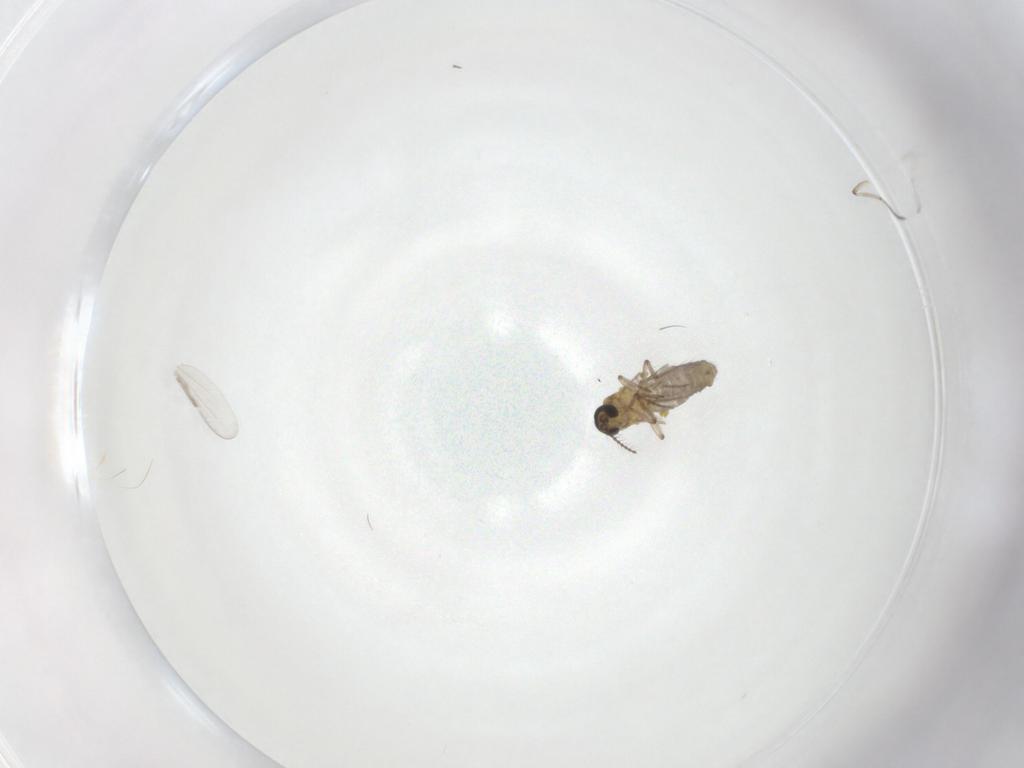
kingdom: Animalia
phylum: Arthropoda
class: Insecta
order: Diptera
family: Ceratopogonidae
